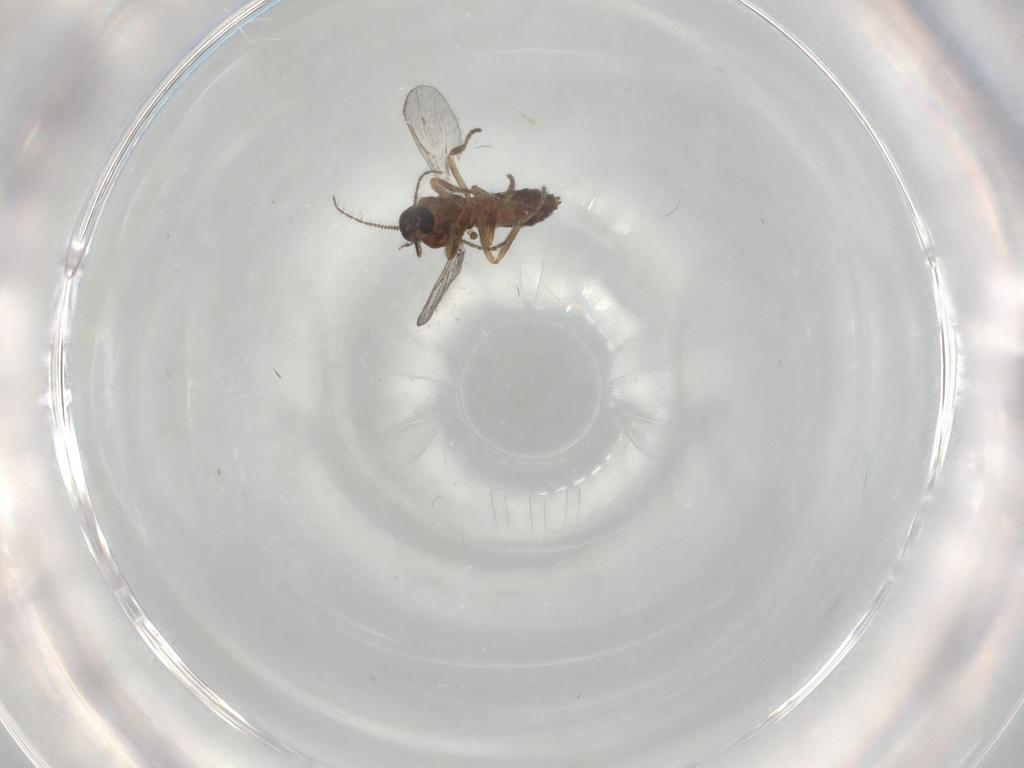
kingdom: Animalia
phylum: Arthropoda
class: Insecta
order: Diptera
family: Ceratopogonidae
